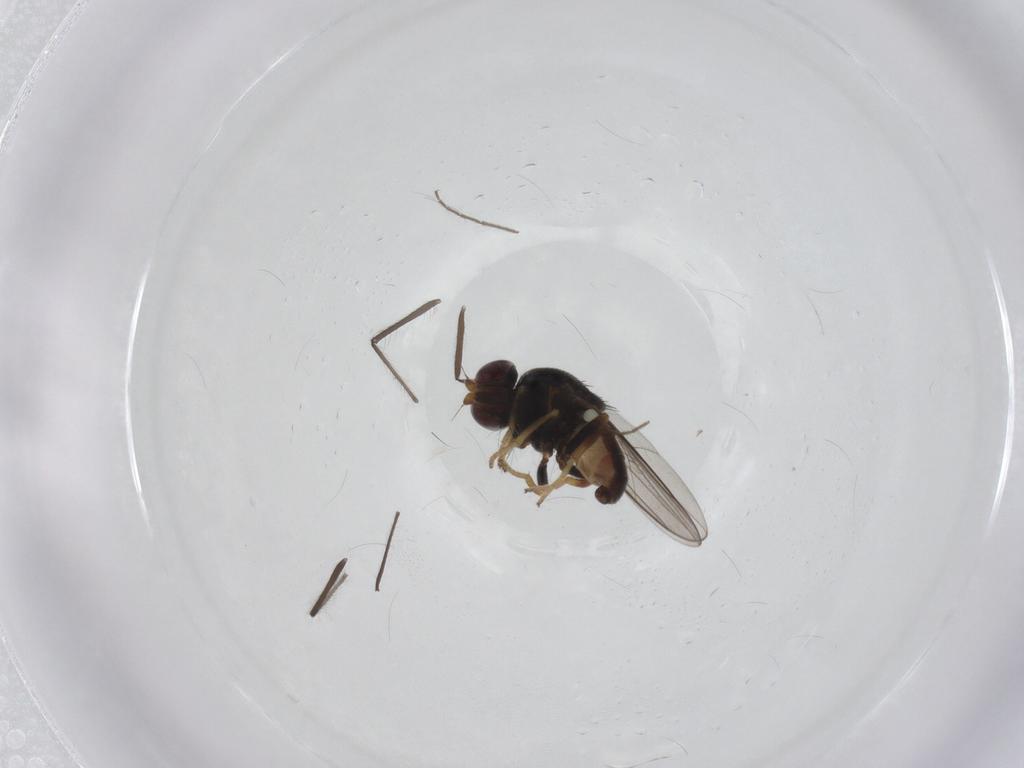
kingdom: Animalia
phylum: Arthropoda
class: Insecta
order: Diptera
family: Chloropidae
